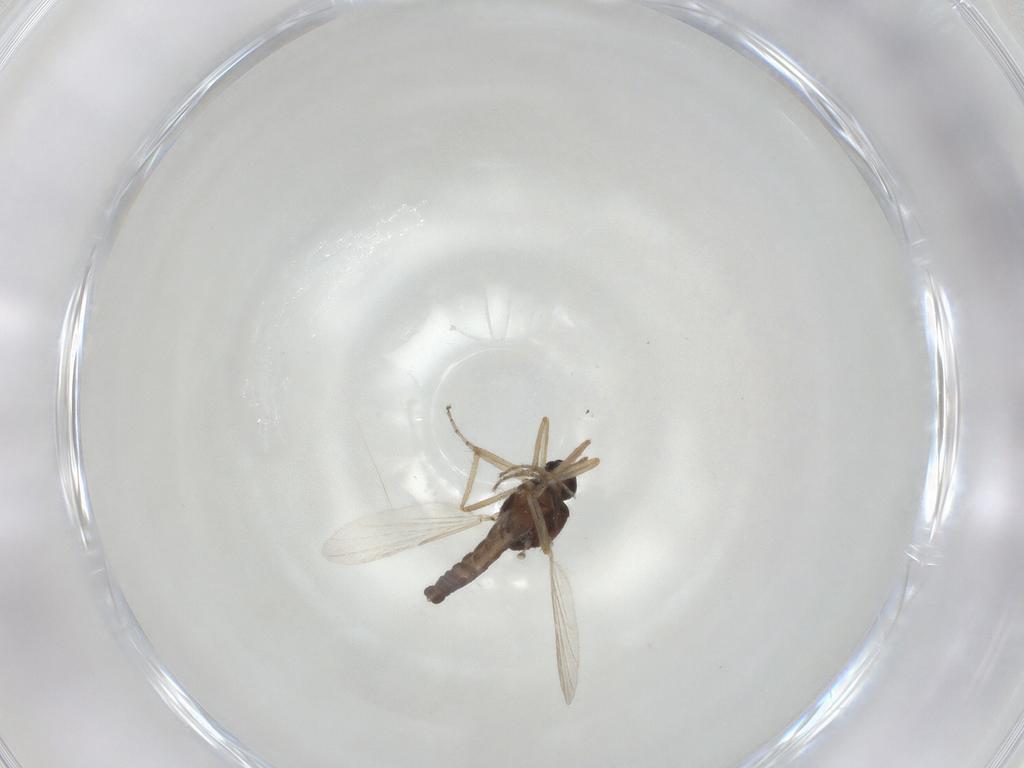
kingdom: Animalia
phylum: Arthropoda
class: Insecta
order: Diptera
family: Ceratopogonidae
